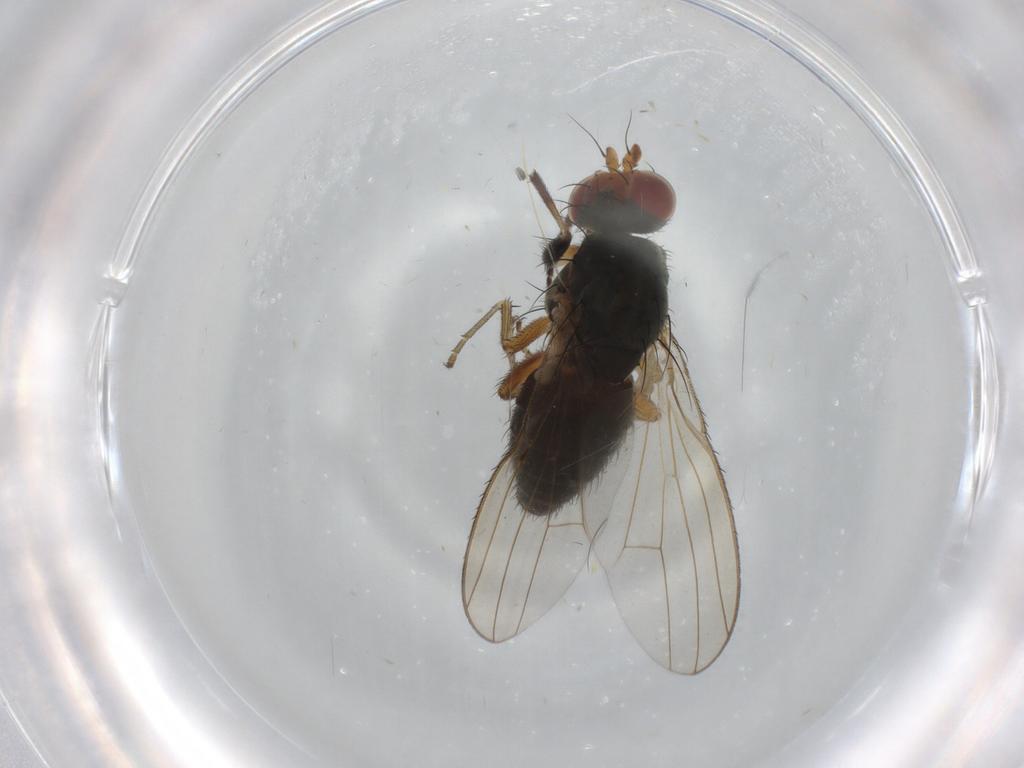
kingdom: Animalia
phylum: Arthropoda
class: Insecta
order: Diptera
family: Heleomyzidae
